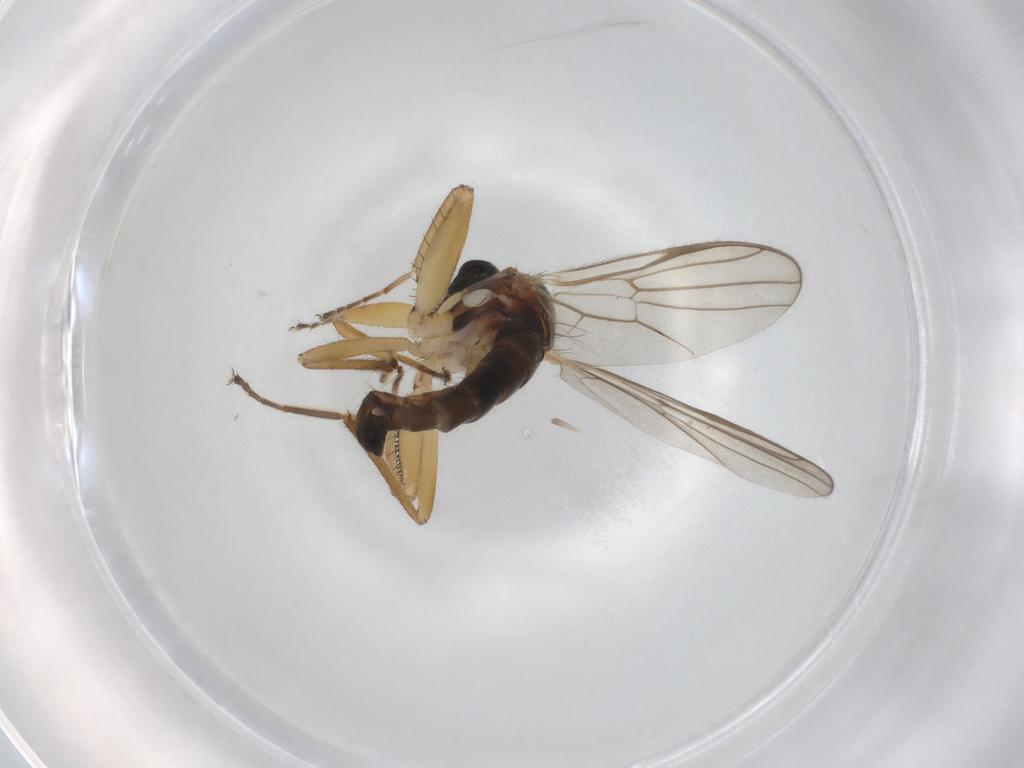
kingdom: Animalia
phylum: Arthropoda
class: Insecta
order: Diptera
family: Hybotidae
